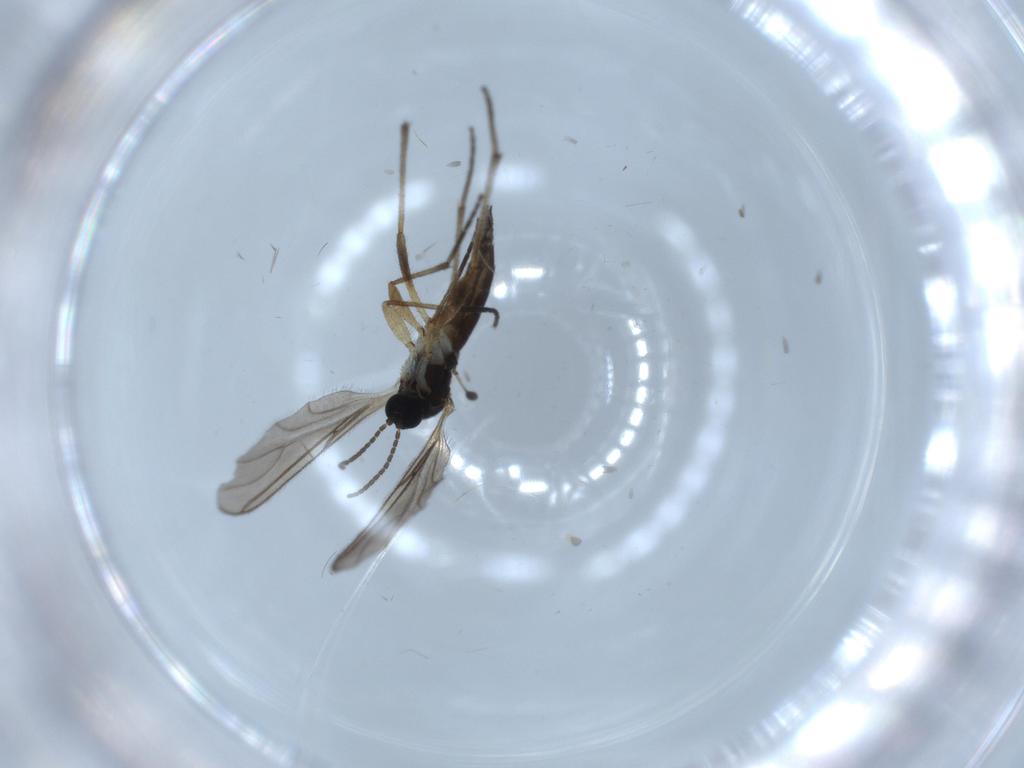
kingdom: Animalia
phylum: Arthropoda
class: Insecta
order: Diptera
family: Sciaridae
